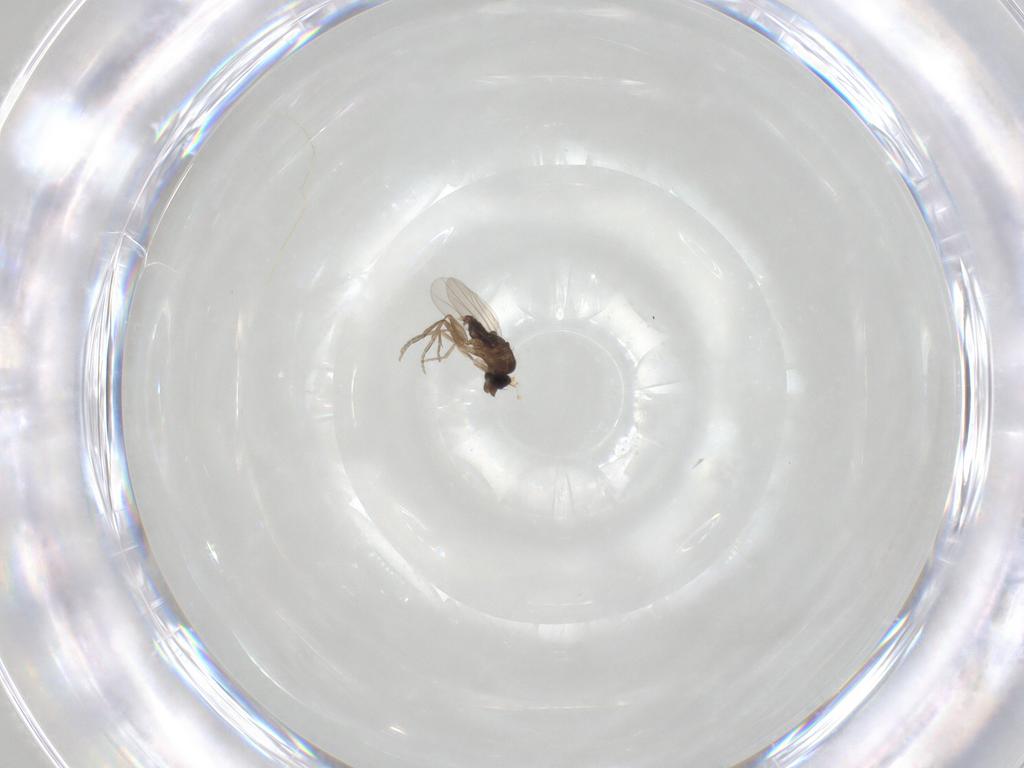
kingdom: Animalia
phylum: Arthropoda
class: Insecta
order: Diptera
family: Phoridae
